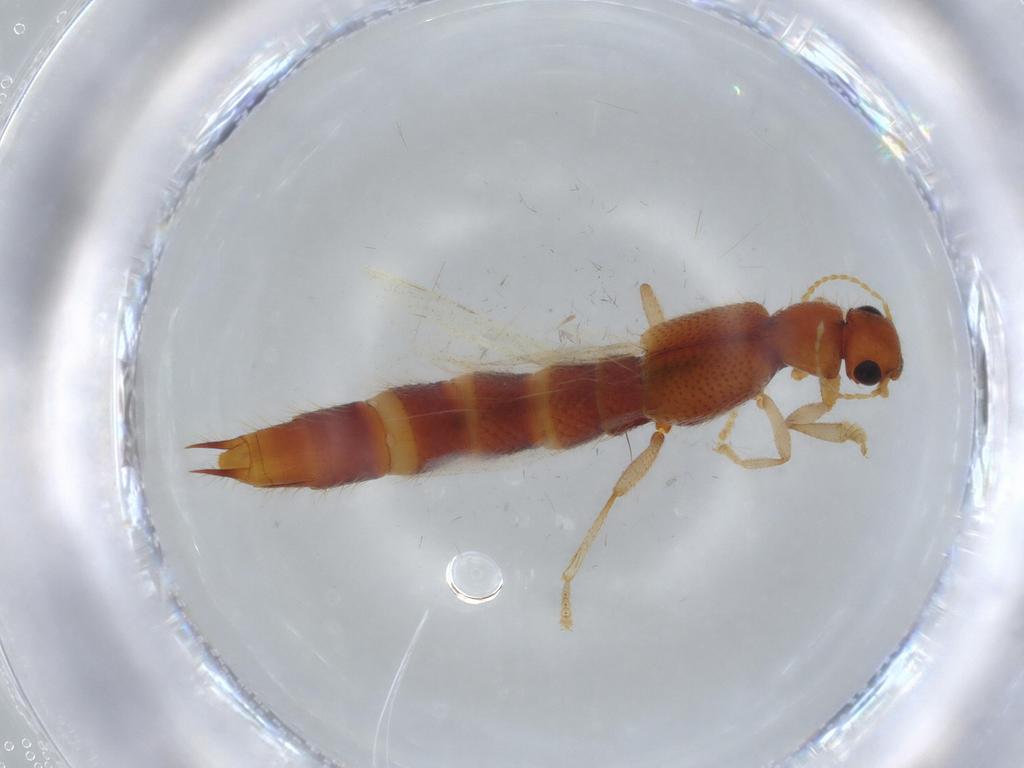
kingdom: Animalia
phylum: Arthropoda
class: Insecta
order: Coleoptera
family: Staphylinidae
